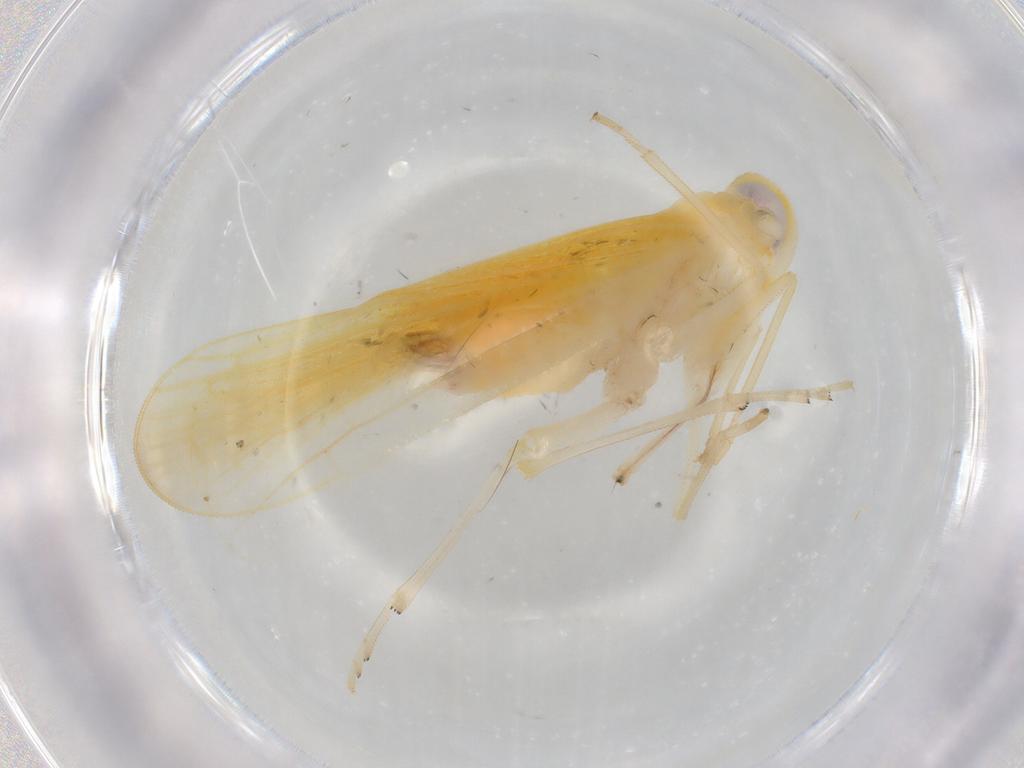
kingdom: Animalia
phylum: Arthropoda
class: Insecta
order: Hemiptera
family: Derbidae
